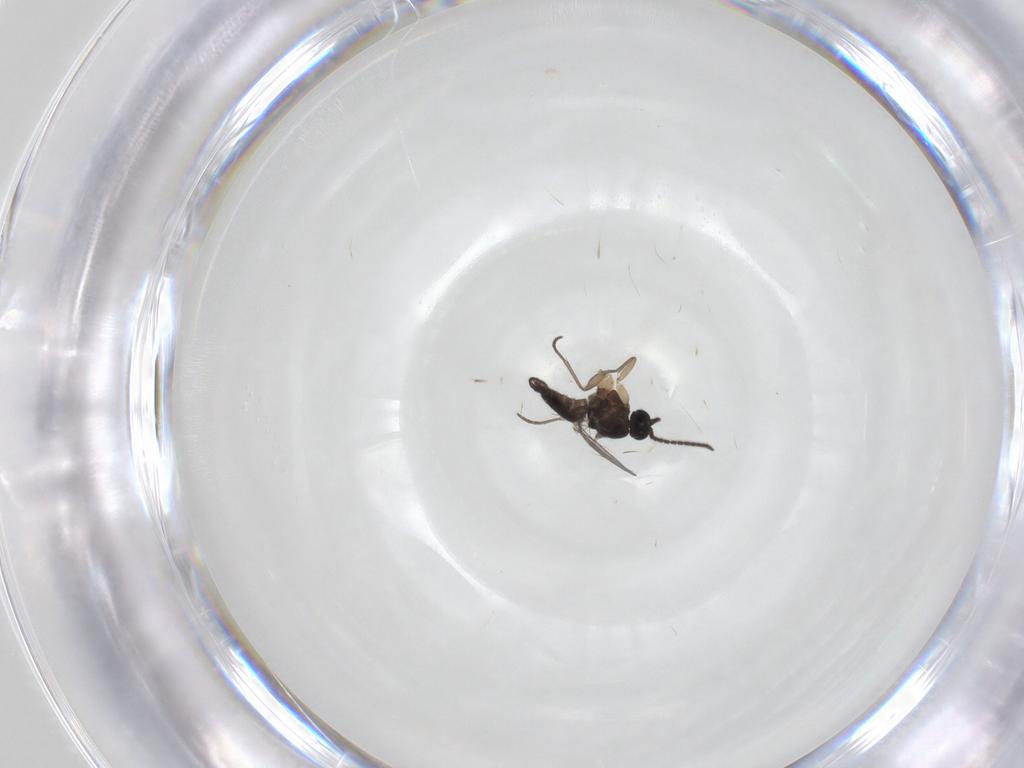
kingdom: Animalia
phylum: Arthropoda
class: Insecta
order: Diptera
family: Sciaridae
